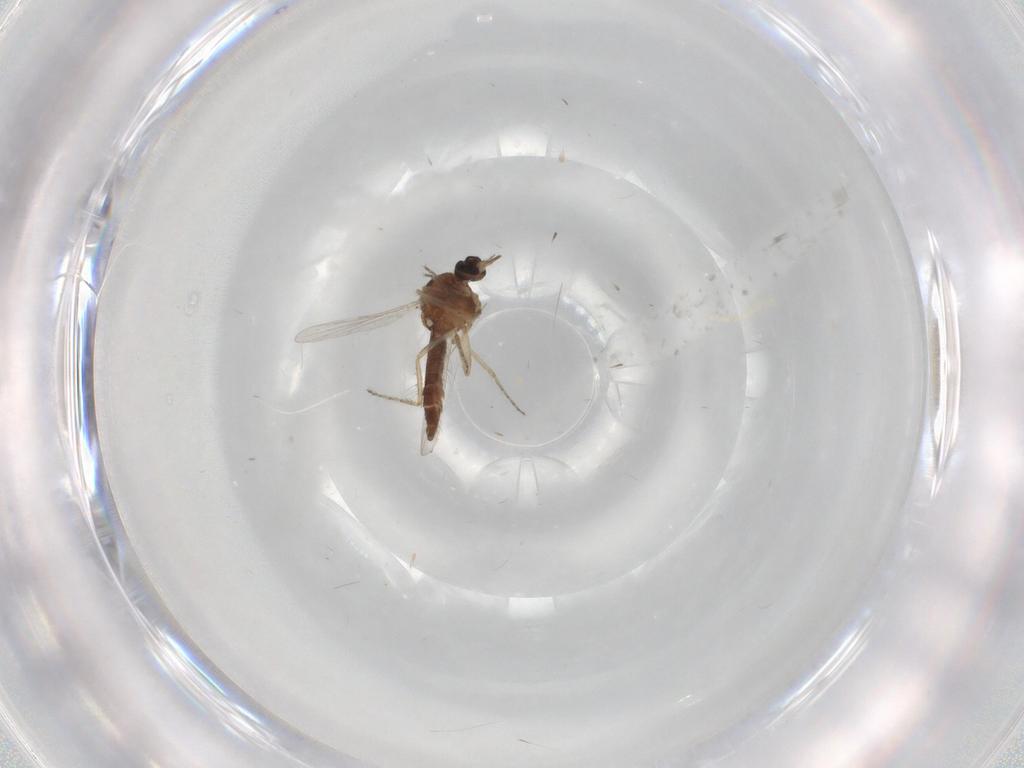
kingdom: Animalia
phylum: Arthropoda
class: Insecta
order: Diptera
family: Ceratopogonidae
